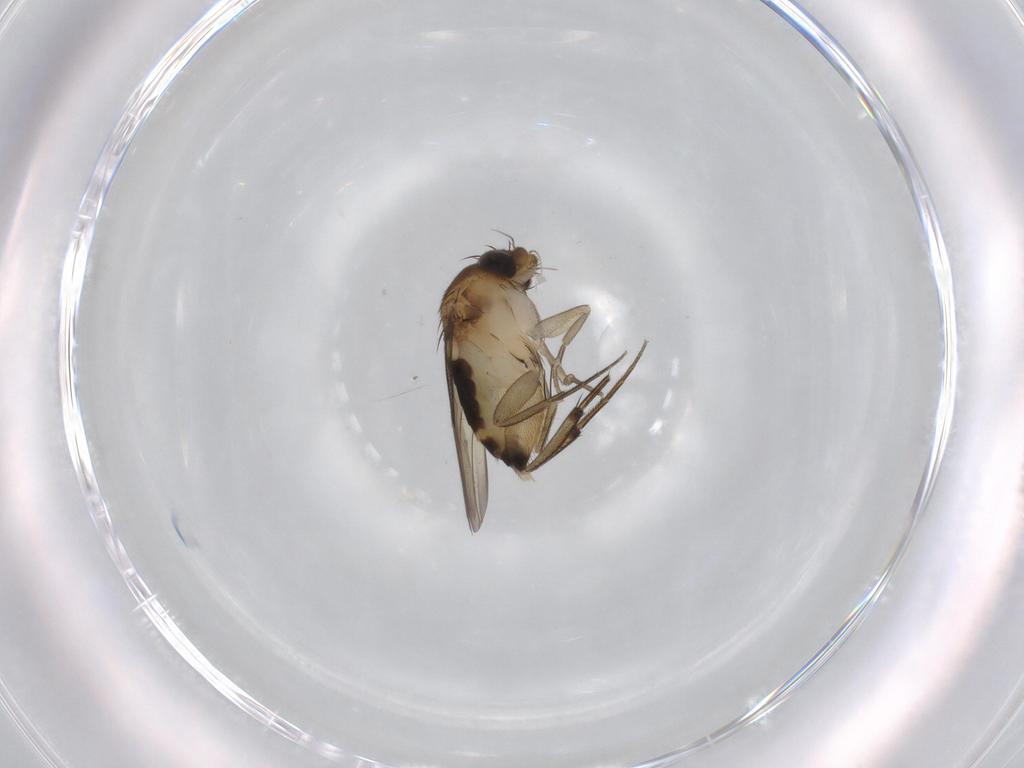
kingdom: Animalia
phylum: Arthropoda
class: Insecta
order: Diptera
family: Phoridae
